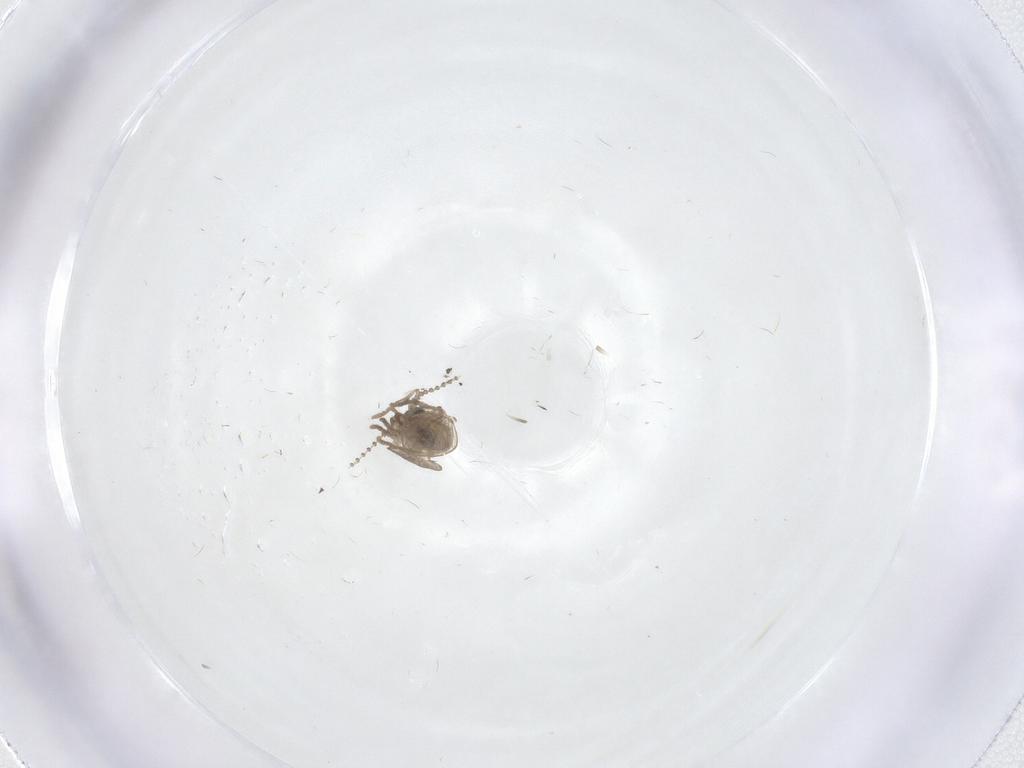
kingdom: Animalia
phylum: Arthropoda
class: Insecta
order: Diptera
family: Psychodidae
